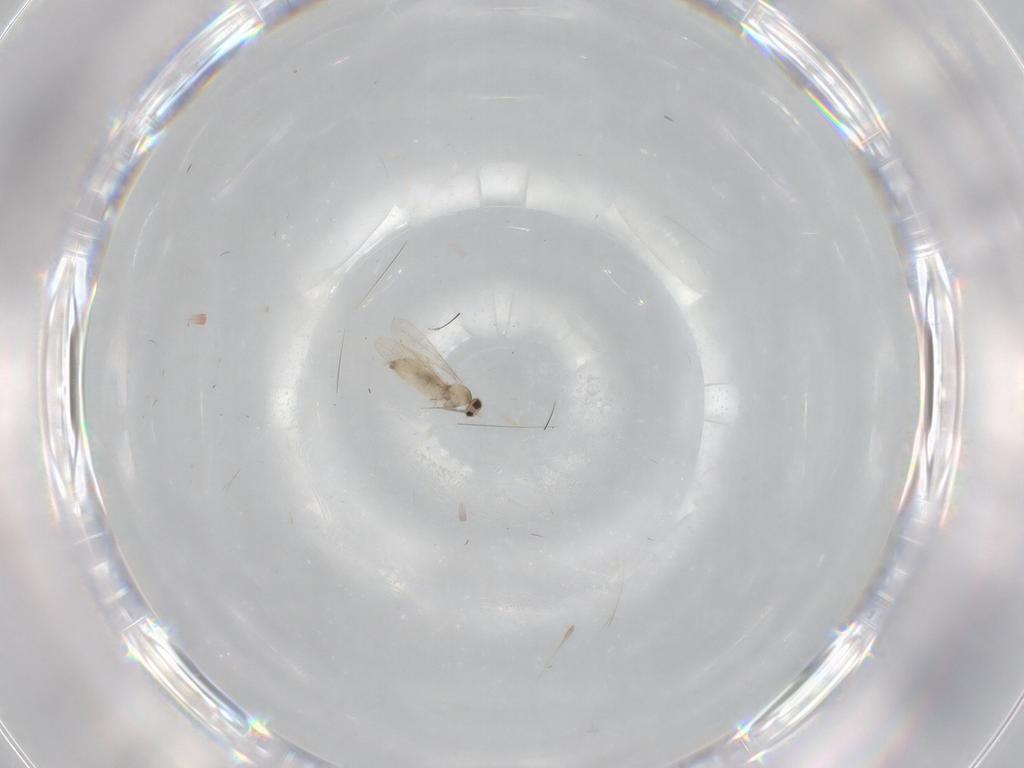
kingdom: Animalia
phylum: Arthropoda
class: Insecta
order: Diptera
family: Cecidomyiidae
